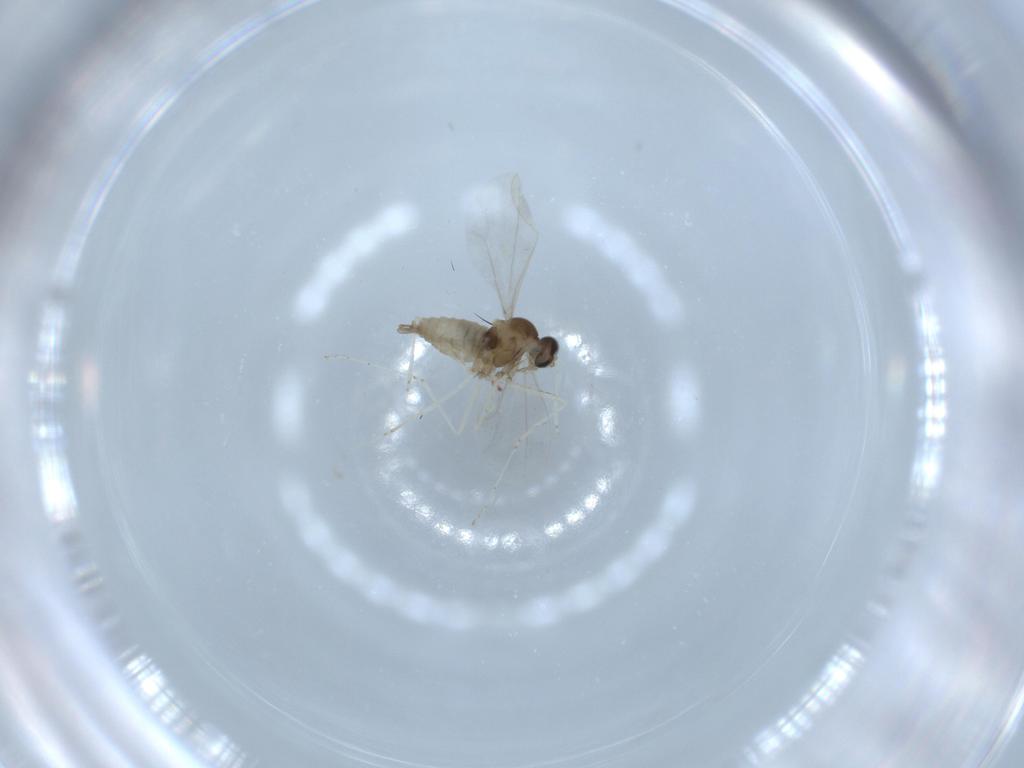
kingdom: Animalia
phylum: Arthropoda
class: Insecta
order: Diptera
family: Cecidomyiidae
